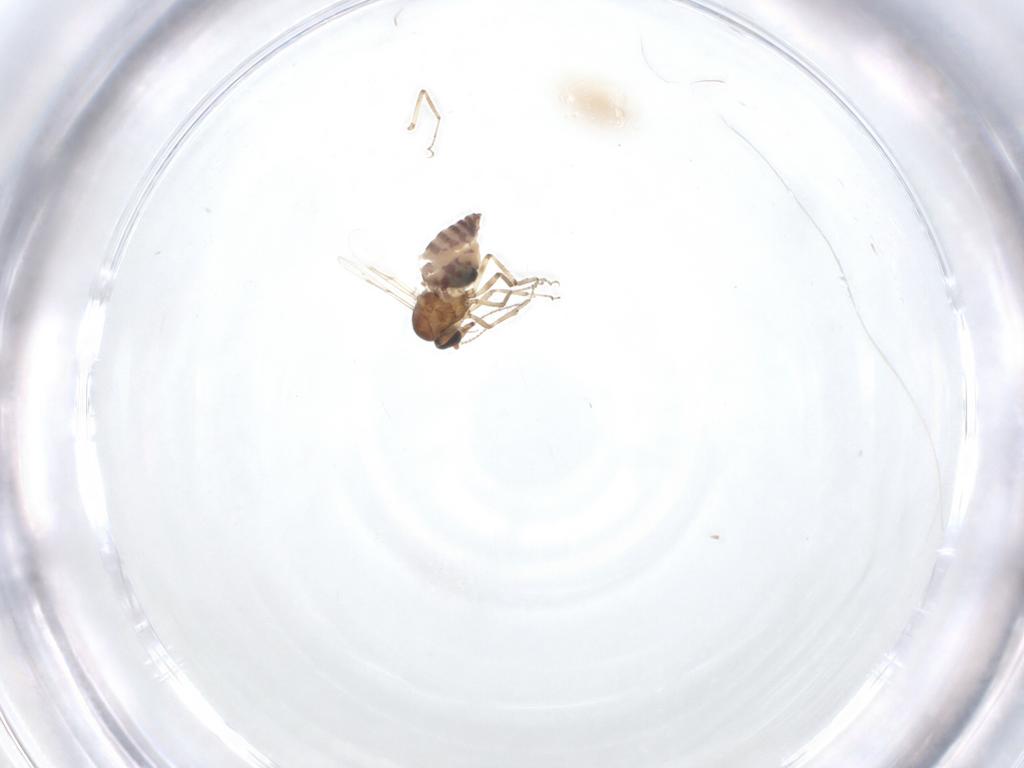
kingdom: Animalia
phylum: Arthropoda
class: Insecta
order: Diptera
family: Ceratopogonidae
